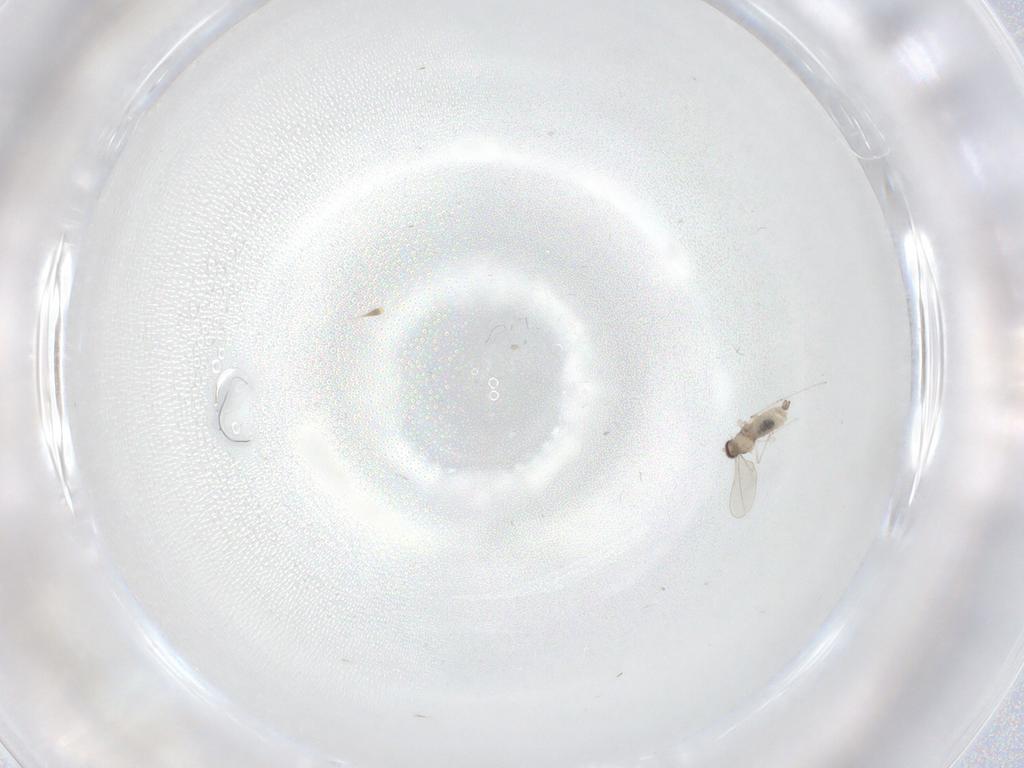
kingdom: Animalia
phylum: Arthropoda
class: Insecta
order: Diptera
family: Cecidomyiidae
